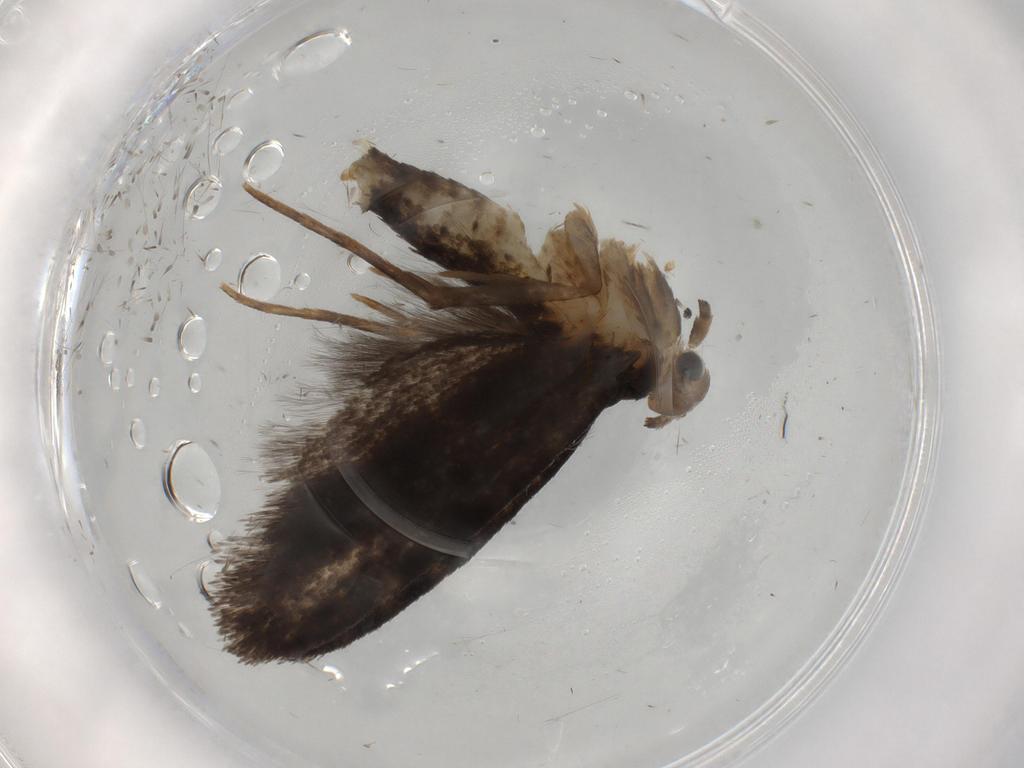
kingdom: Animalia
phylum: Arthropoda
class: Insecta
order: Lepidoptera
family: Tineidae
